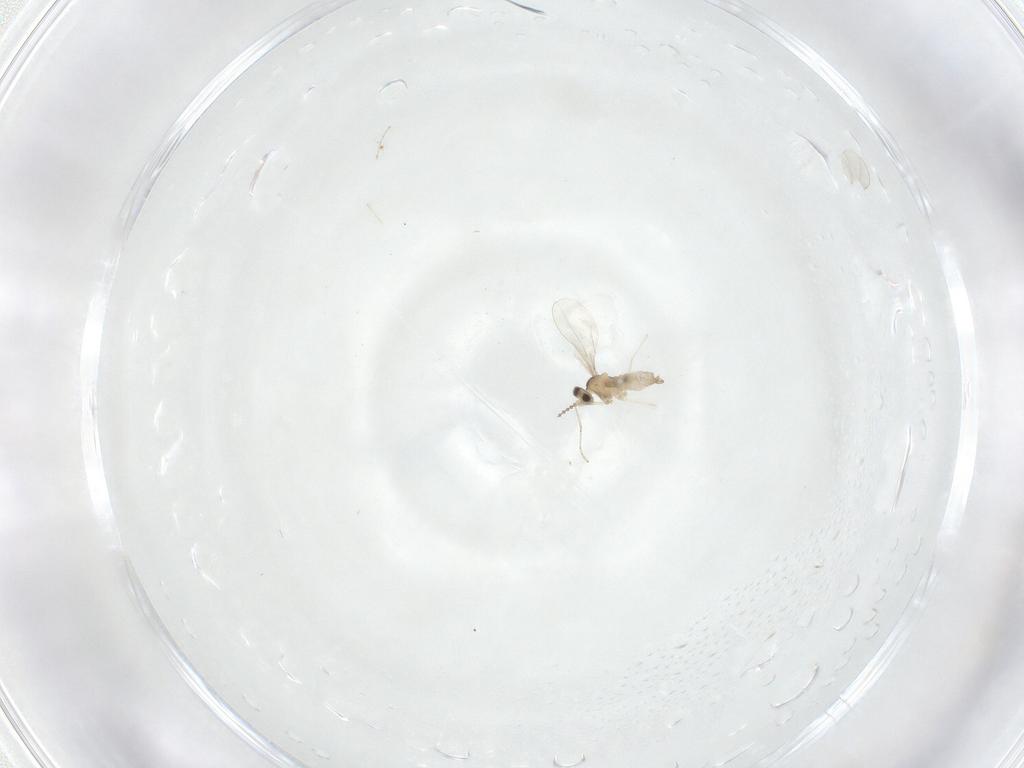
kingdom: Animalia
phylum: Arthropoda
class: Insecta
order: Diptera
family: Cecidomyiidae
